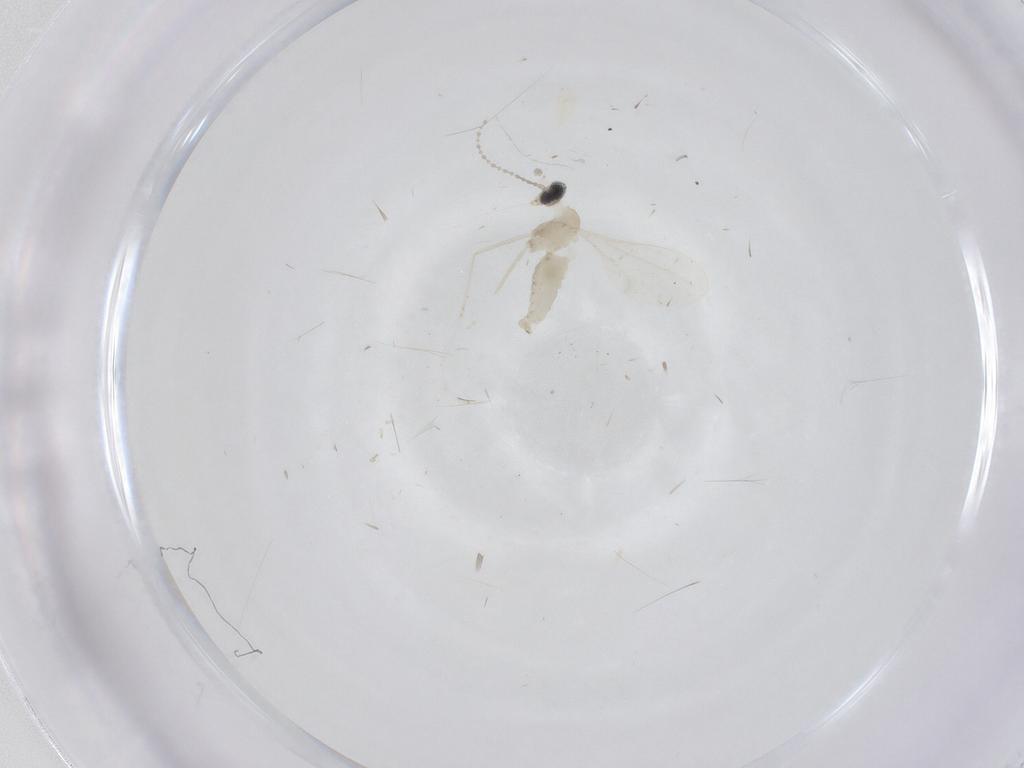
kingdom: Animalia
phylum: Arthropoda
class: Insecta
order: Diptera
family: Cecidomyiidae
